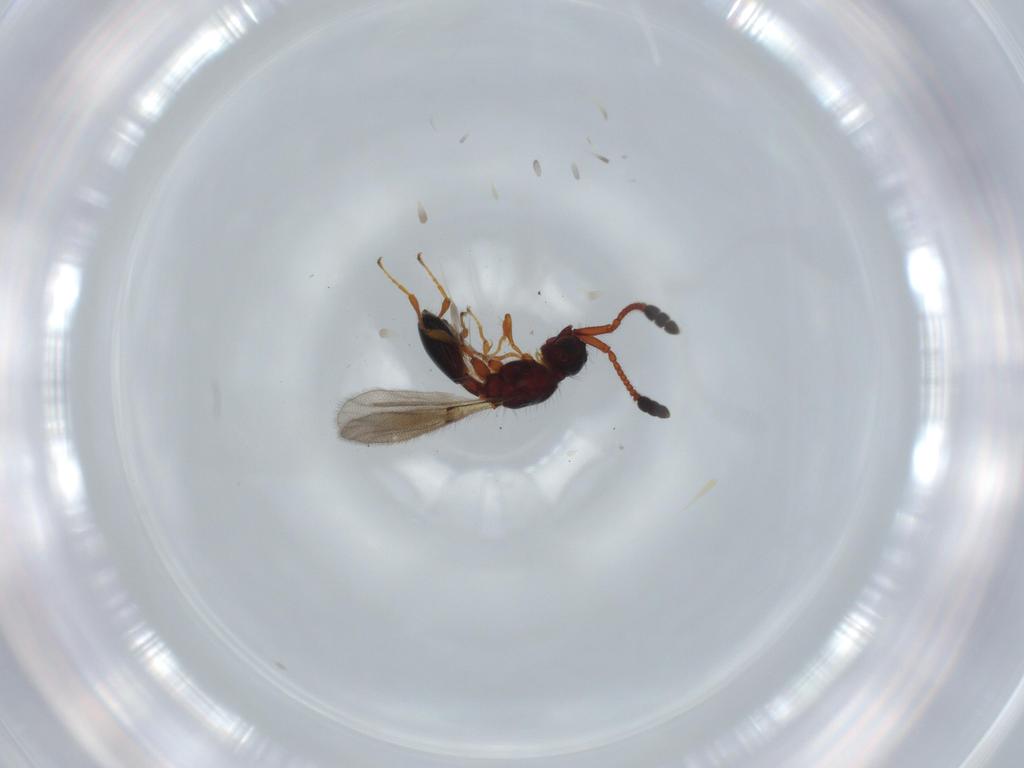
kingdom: Animalia
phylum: Arthropoda
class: Insecta
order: Hymenoptera
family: Diapriidae
